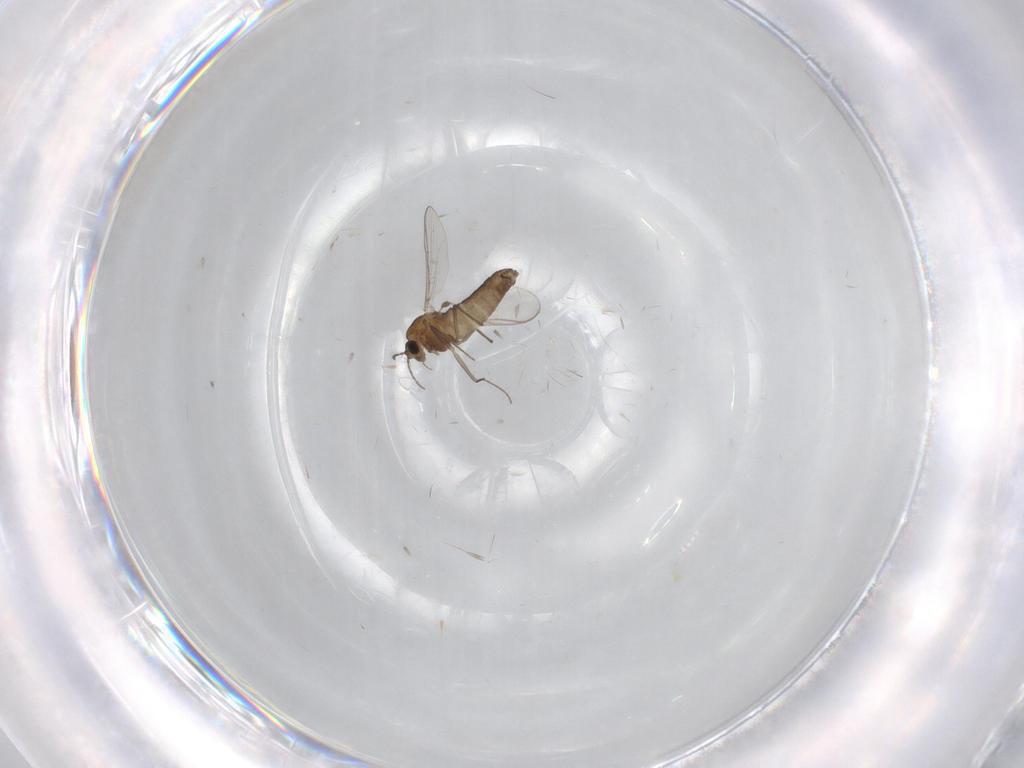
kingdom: Animalia
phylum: Arthropoda
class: Insecta
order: Diptera
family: Chironomidae
